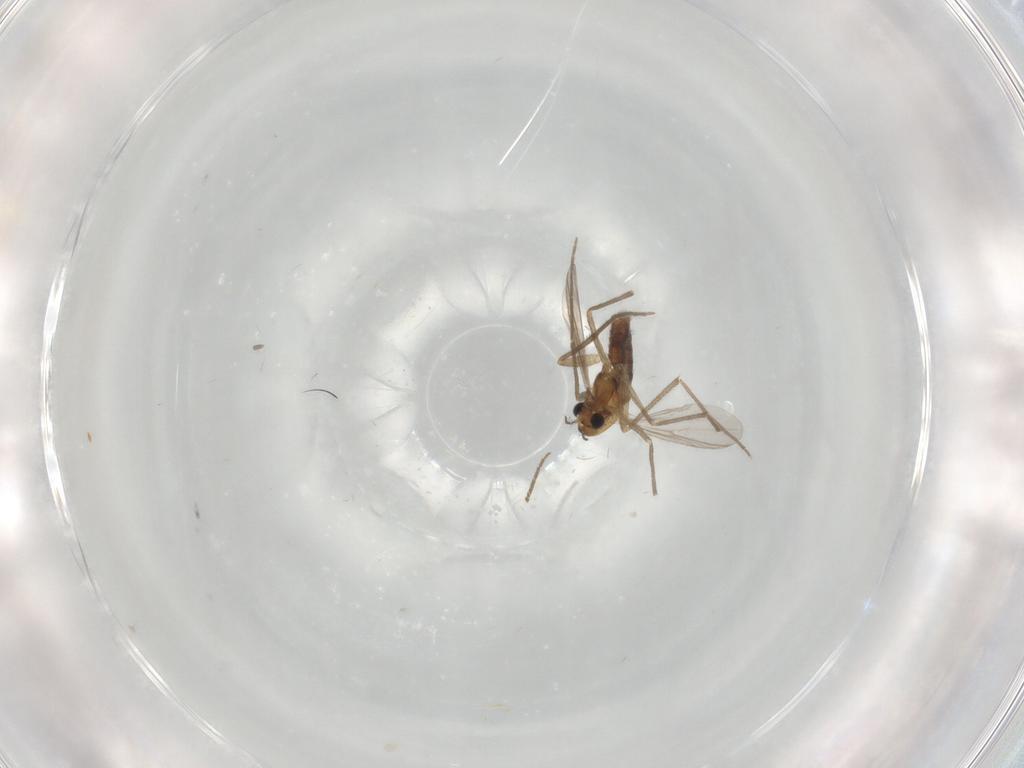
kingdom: Animalia
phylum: Arthropoda
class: Insecta
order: Diptera
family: Chironomidae
